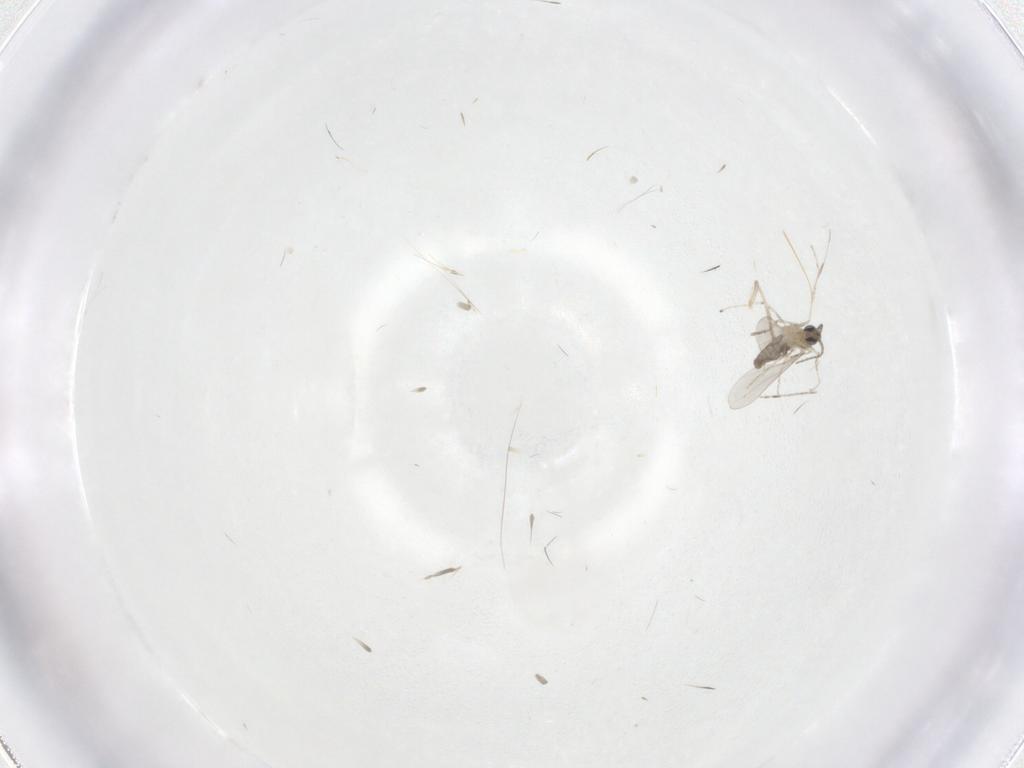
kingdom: Animalia
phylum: Arthropoda
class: Insecta
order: Diptera
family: Cecidomyiidae
